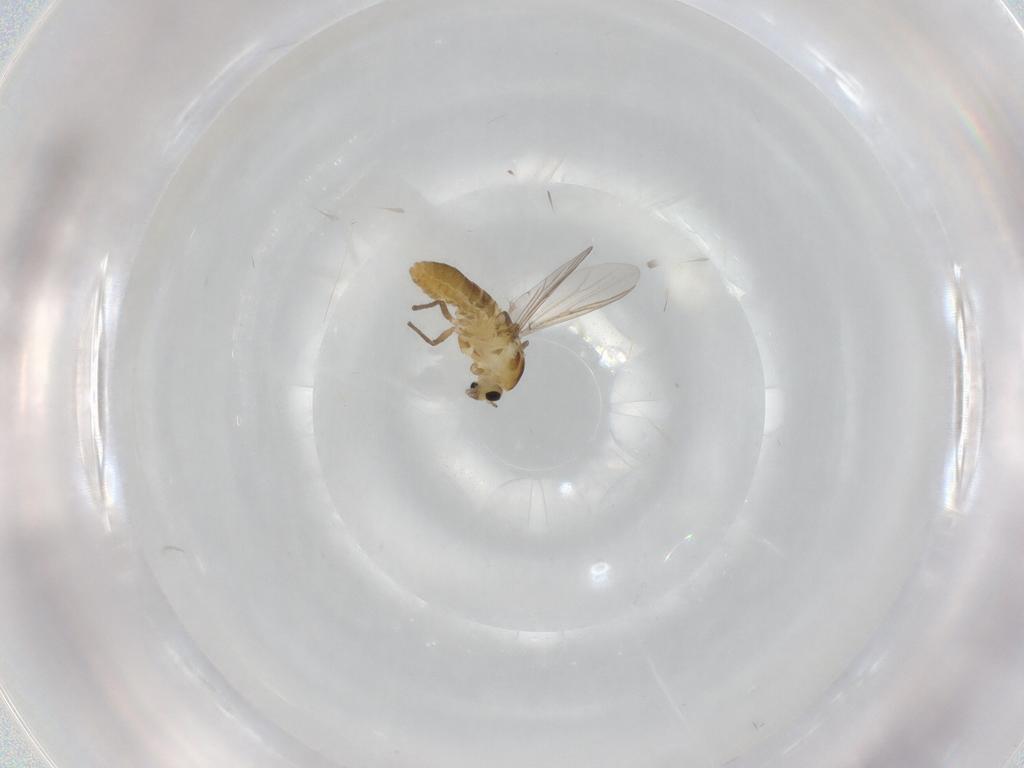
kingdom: Animalia
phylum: Arthropoda
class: Insecta
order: Diptera
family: Chironomidae
